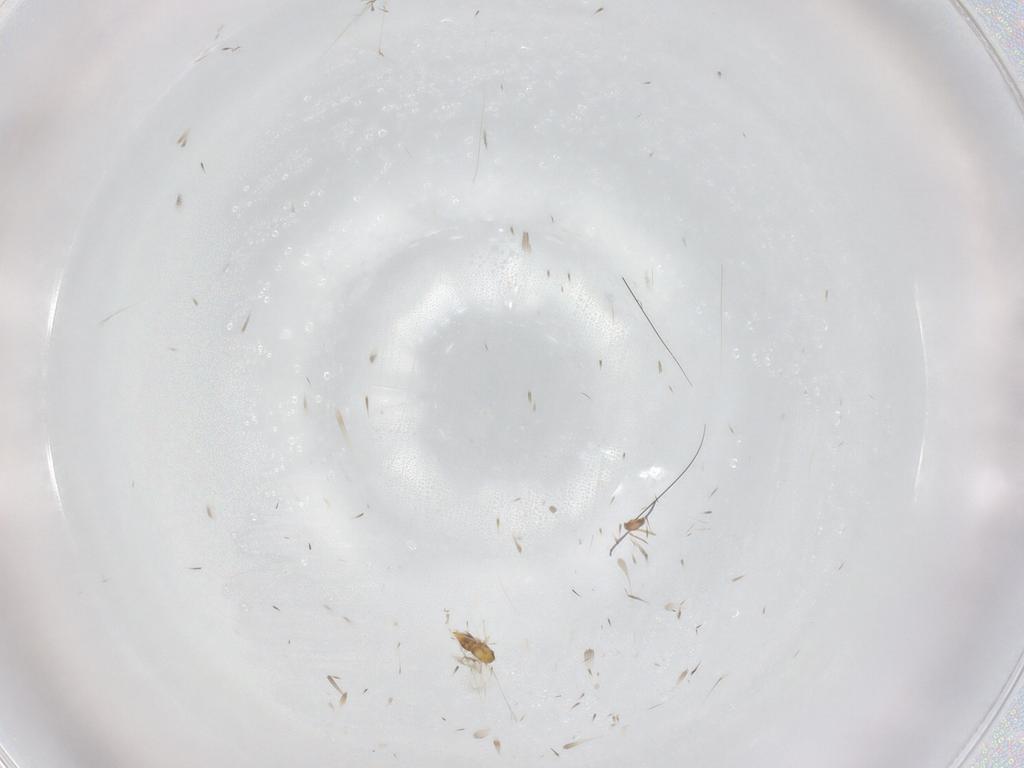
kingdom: Animalia
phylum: Arthropoda
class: Insecta
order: Hymenoptera
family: Aphelinidae
